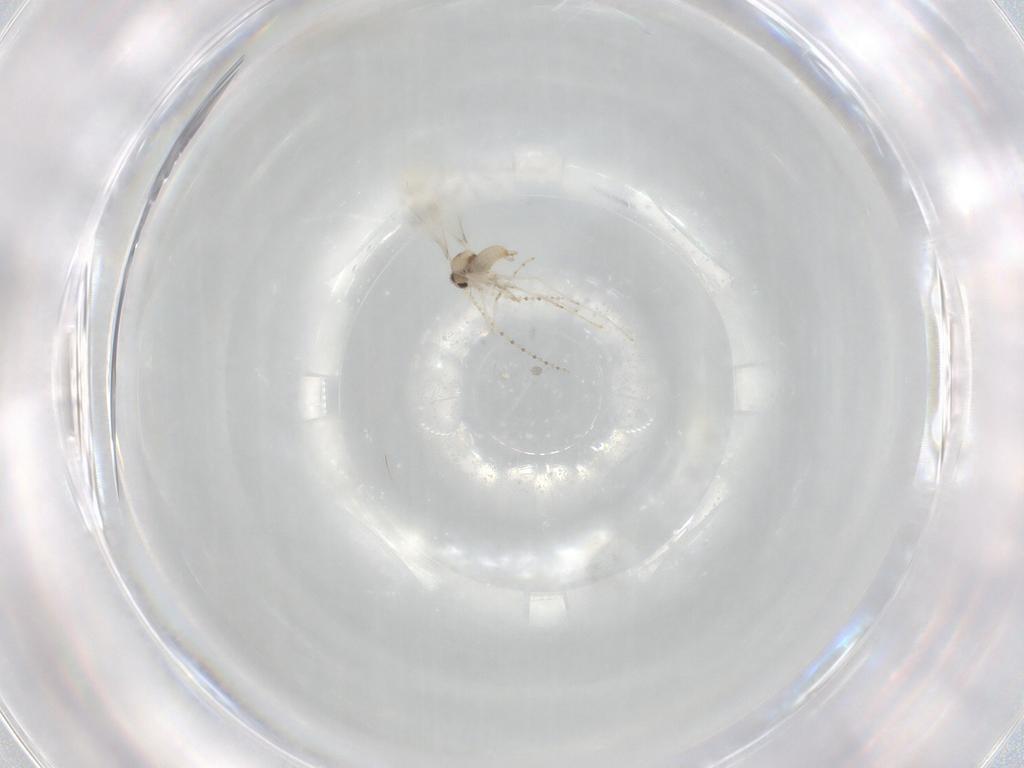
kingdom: Animalia
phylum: Arthropoda
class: Insecta
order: Diptera
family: Cecidomyiidae
